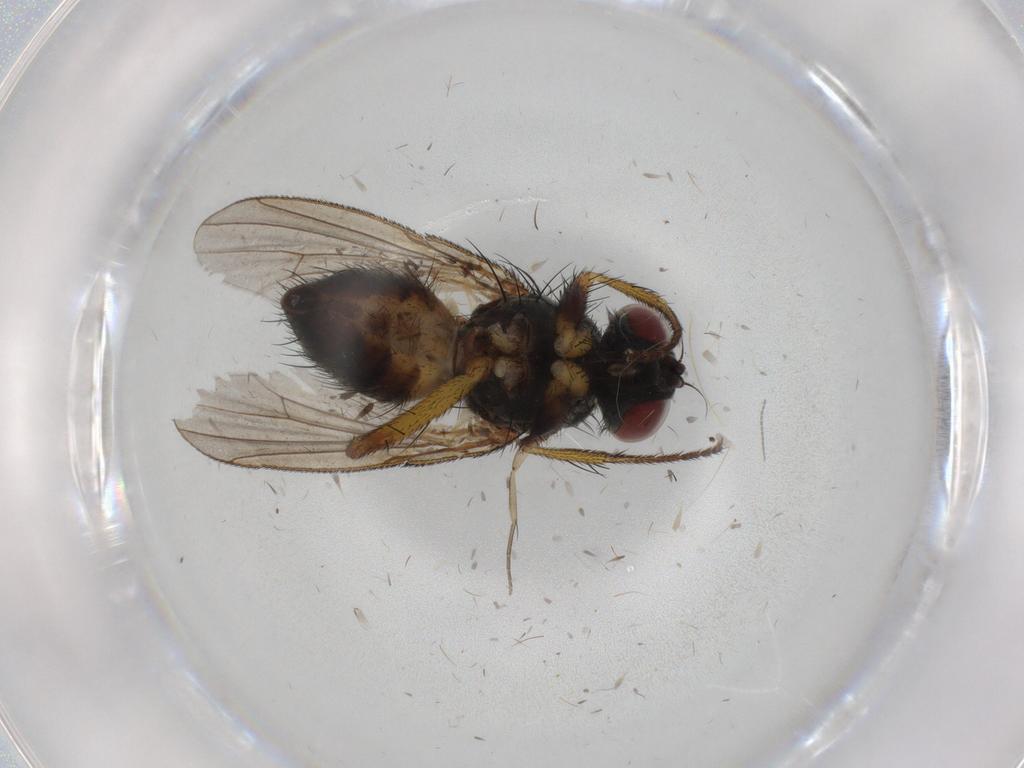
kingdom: Animalia
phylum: Arthropoda
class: Insecta
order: Diptera
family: Muscidae
